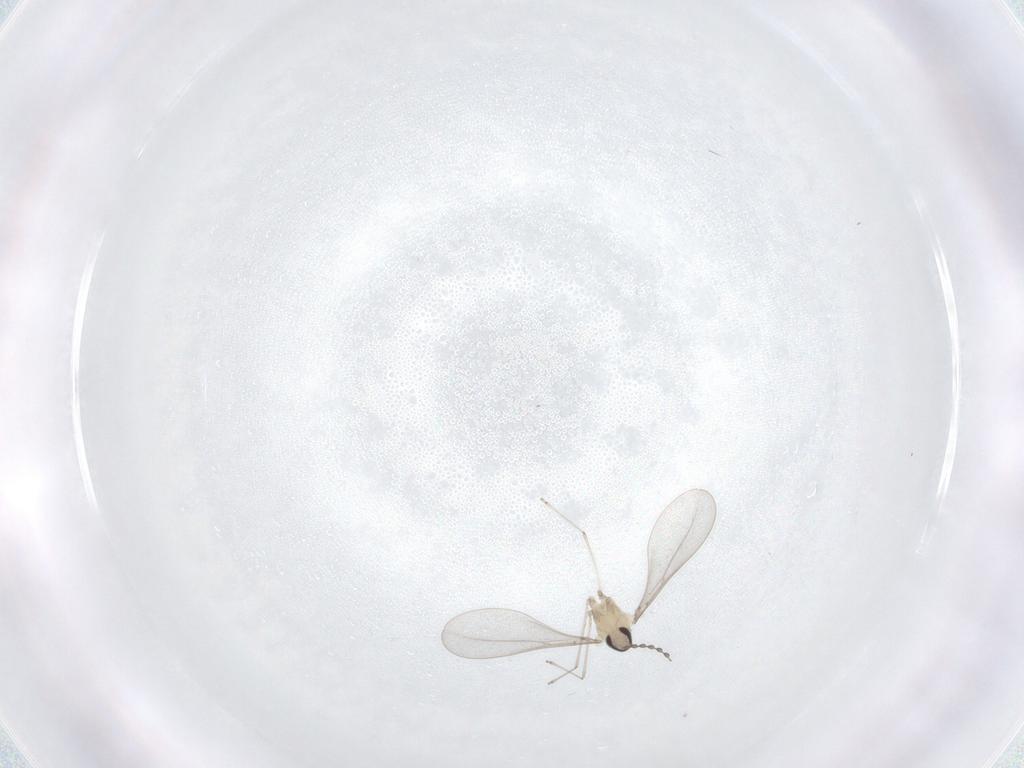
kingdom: Animalia
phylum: Arthropoda
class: Insecta
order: Diptera
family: Cecidomyiidae
